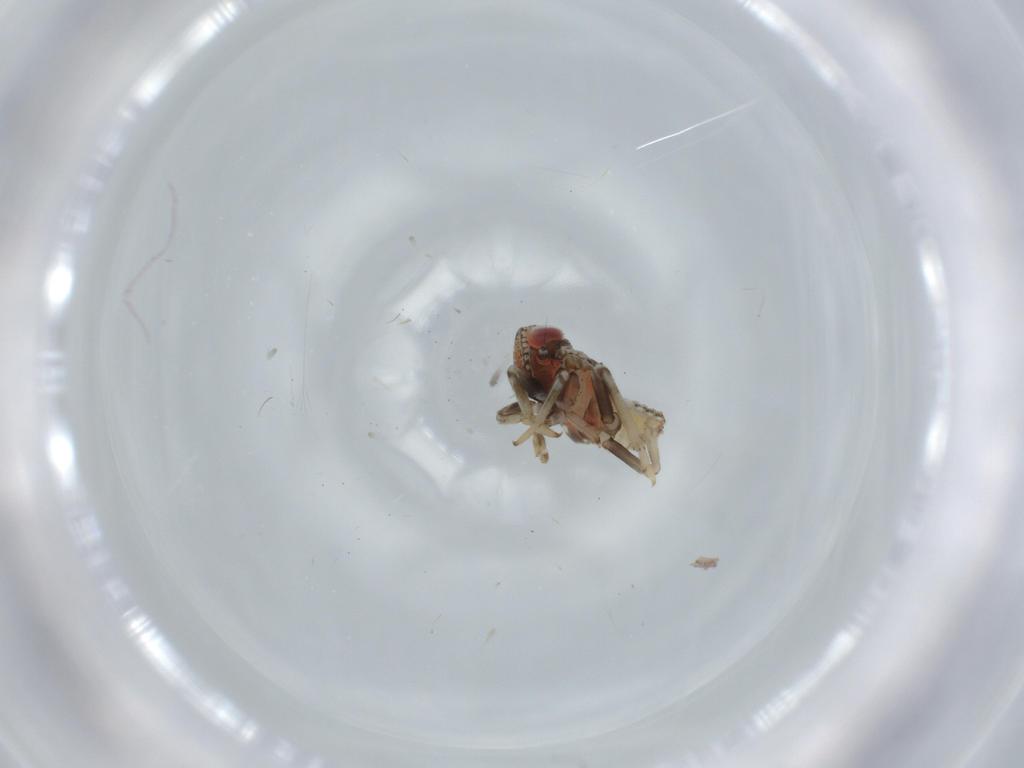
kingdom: Animalia
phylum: Arthropoda
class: Insecta
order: Hemiptera
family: Issidae
